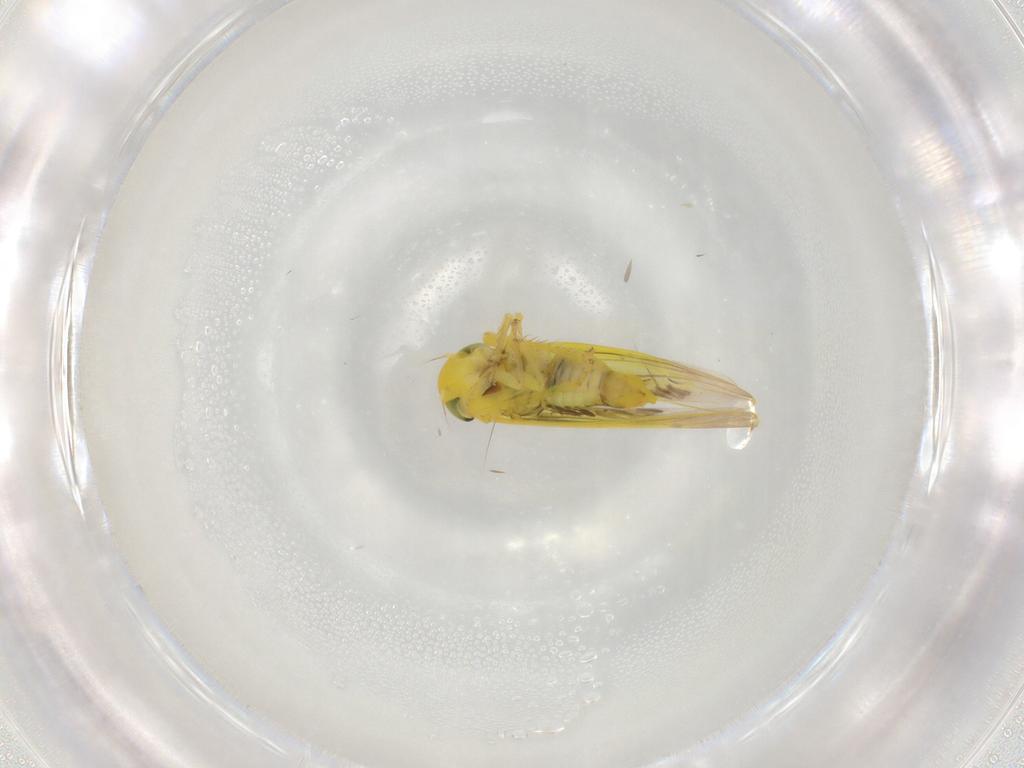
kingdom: Animalia
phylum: Arthropoda
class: Insecta
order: Hemiptera
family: Cicadellidae
